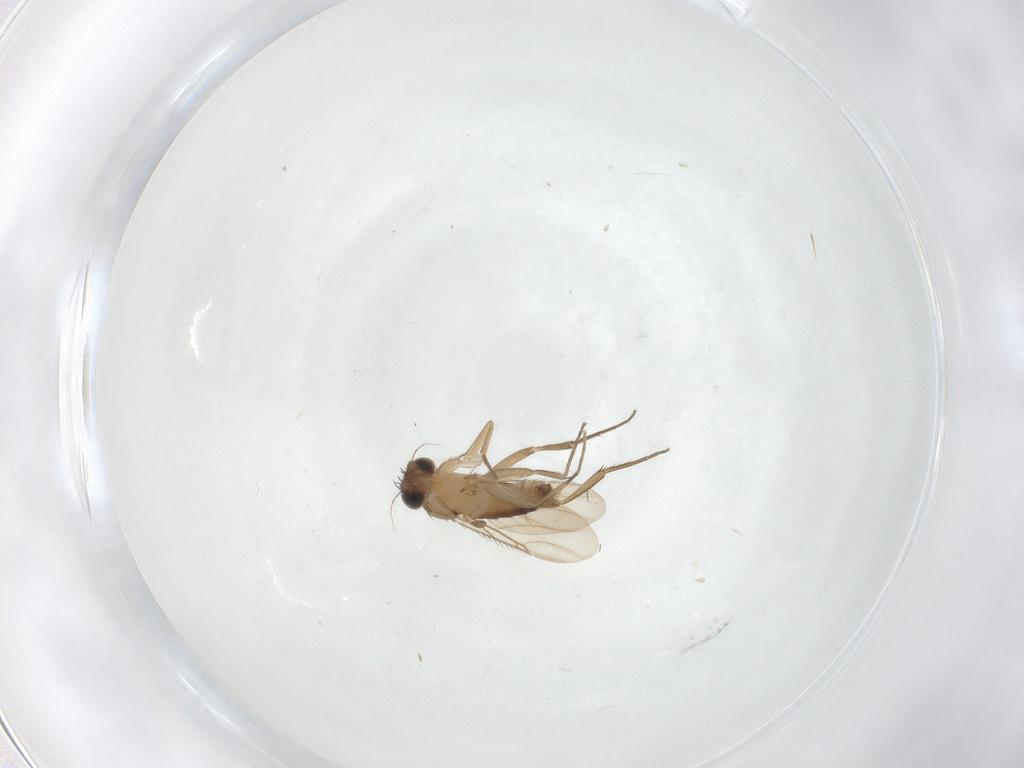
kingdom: Animalia
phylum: Arthropoda
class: Insecta
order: Diptera
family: Phoridae
